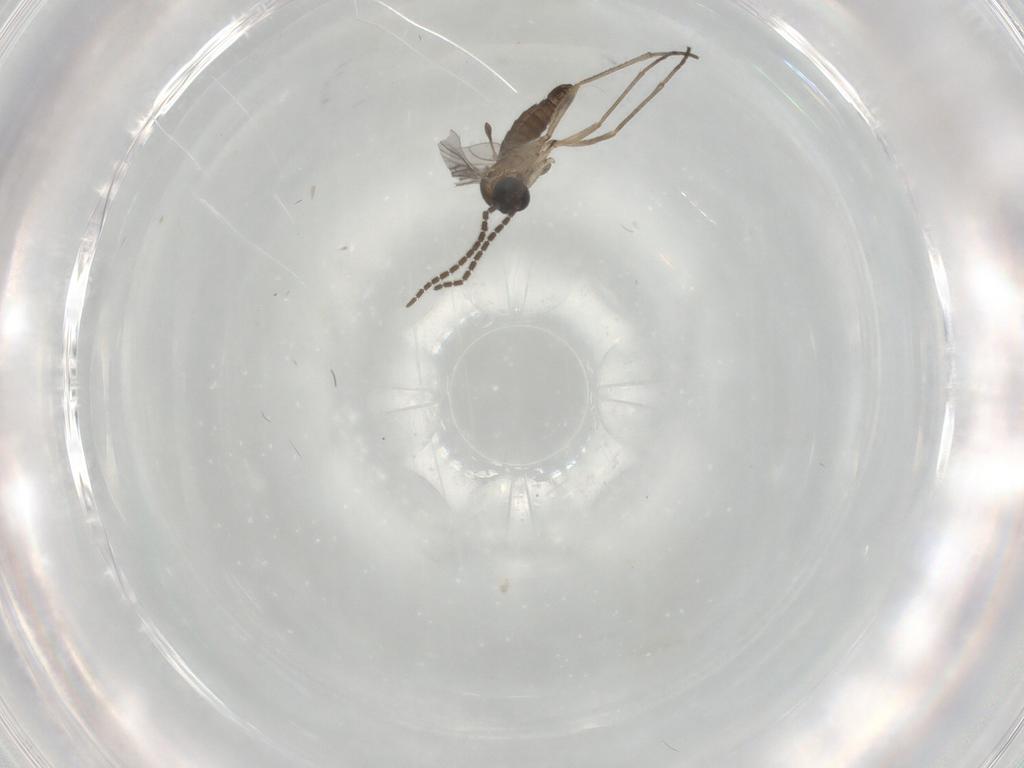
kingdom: Animalia
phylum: Arthropoda
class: Insecta
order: Diptera
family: Sciaridae
